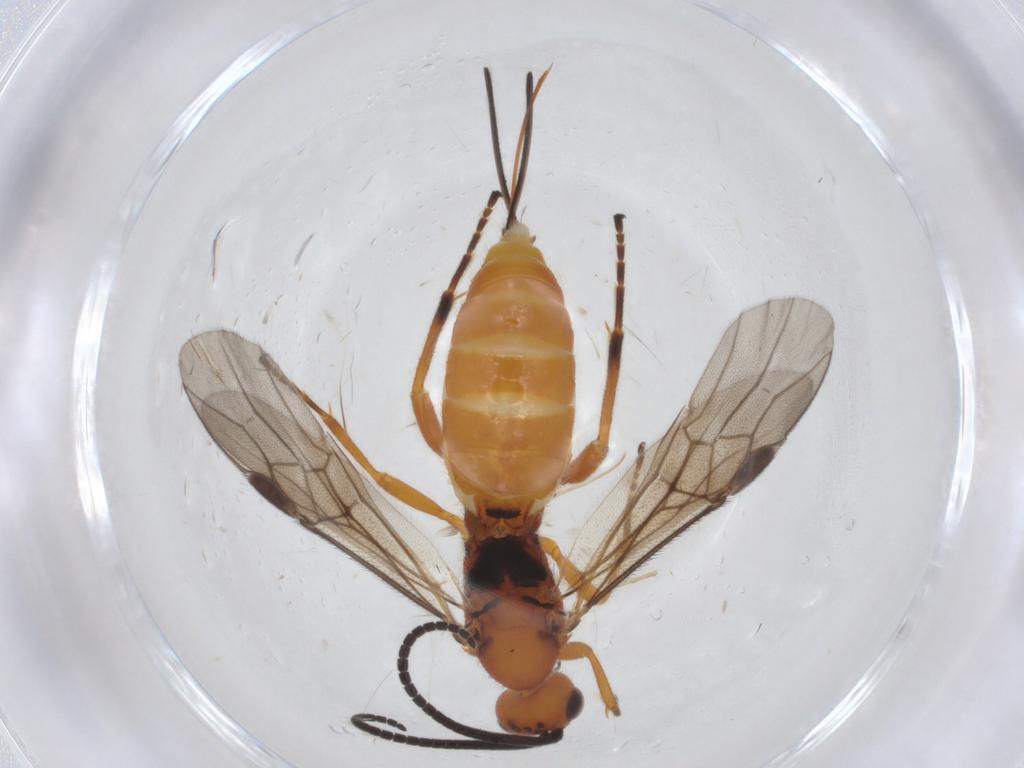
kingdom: Animalia
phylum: Arthropoda
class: Insecta
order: Hymenoptera
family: Braconidae
